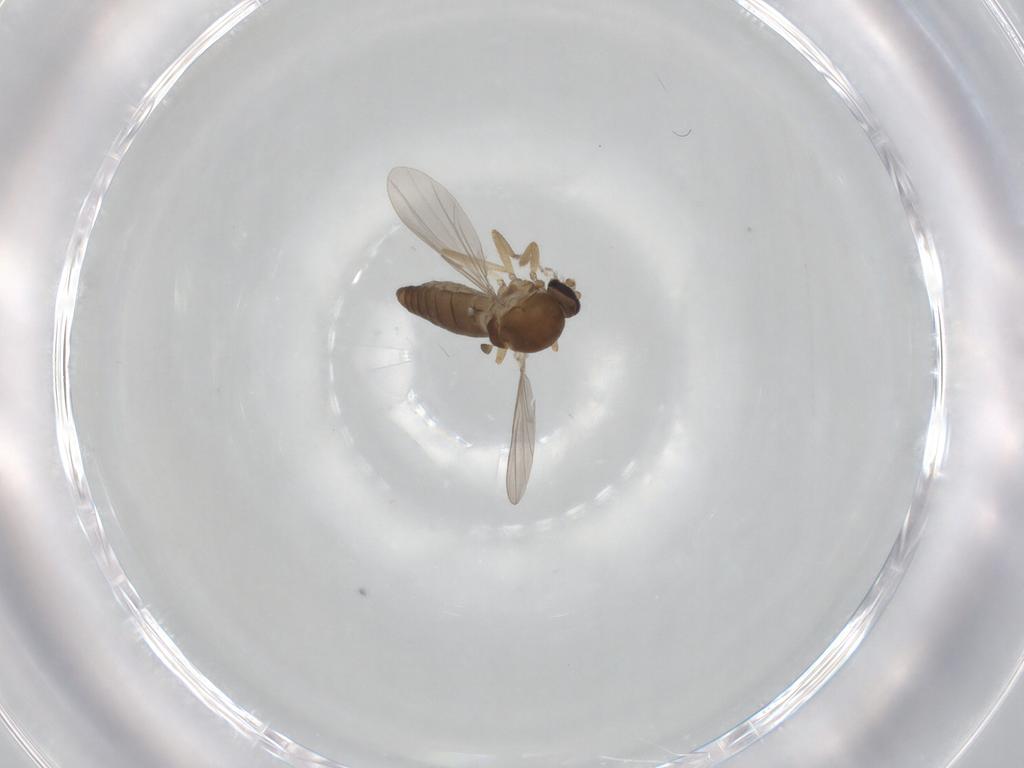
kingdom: Animalia
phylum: Arthropoda
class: Insecta
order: Diptera
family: Ceratopogonidae
